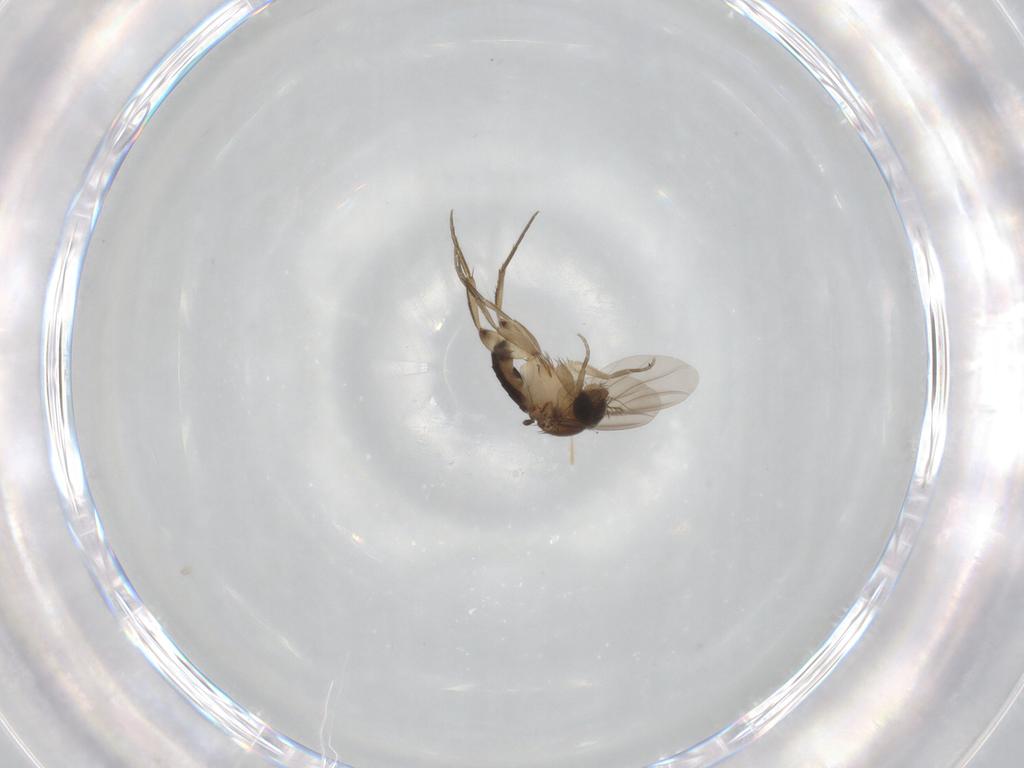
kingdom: Animalia
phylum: Arthropoda
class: Insecta
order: Diptera
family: Phoridae
